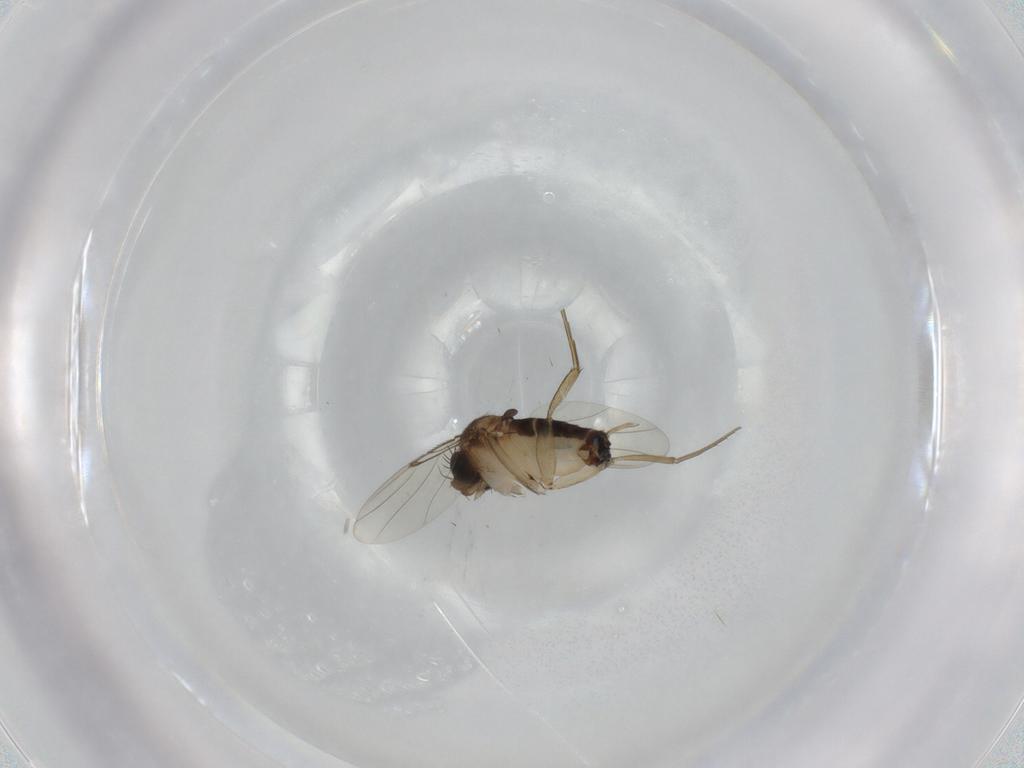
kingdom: Animalia
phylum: Arthropoda
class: Insecta
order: Diptera
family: Phoridae
